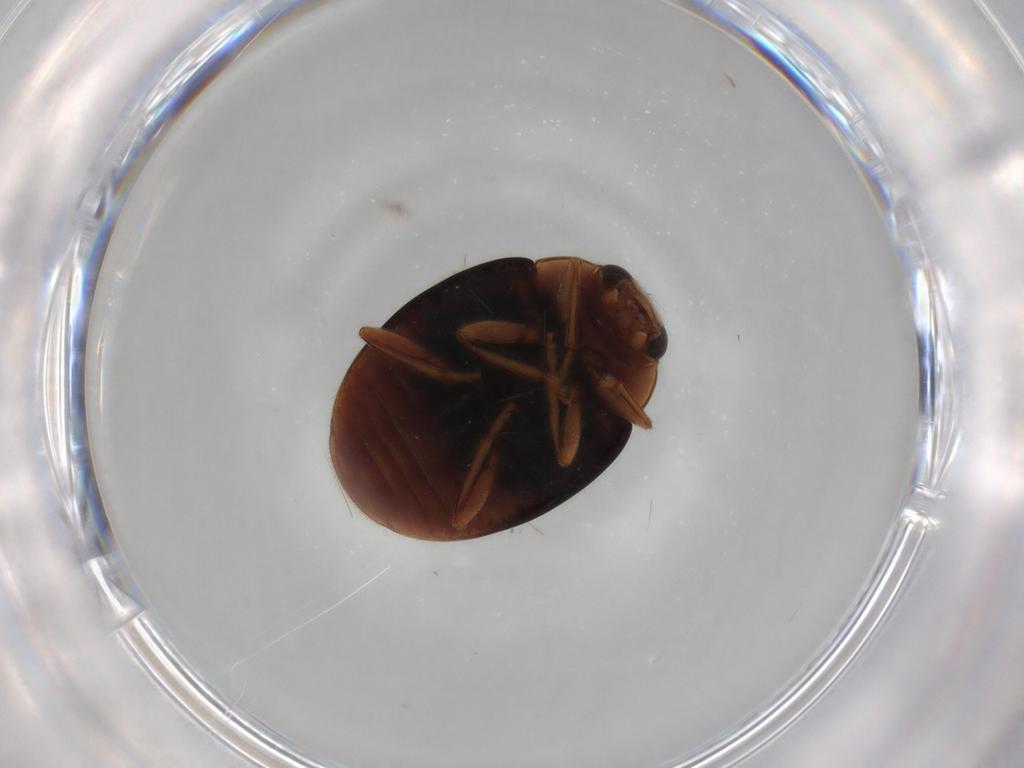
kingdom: Animalia
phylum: Arthropoda
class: Insecta
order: Coleoptera
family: Coccinellidae
